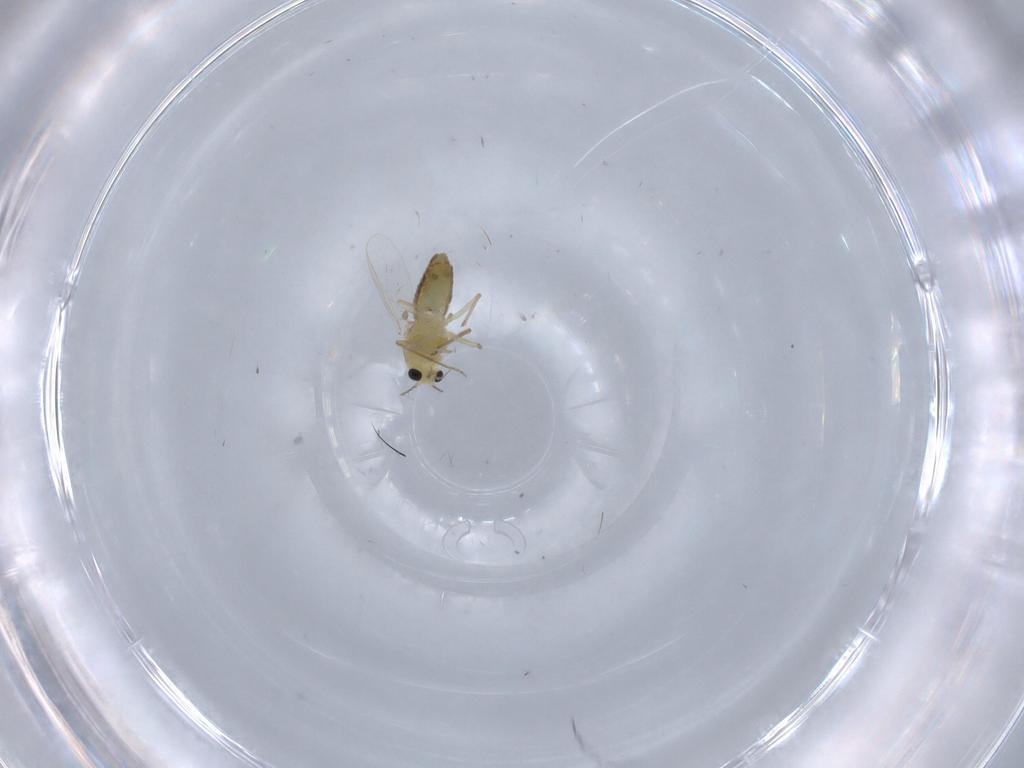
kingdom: Animalia
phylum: Arthropoda
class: Insecta
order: Diptera
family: Chironomidae
